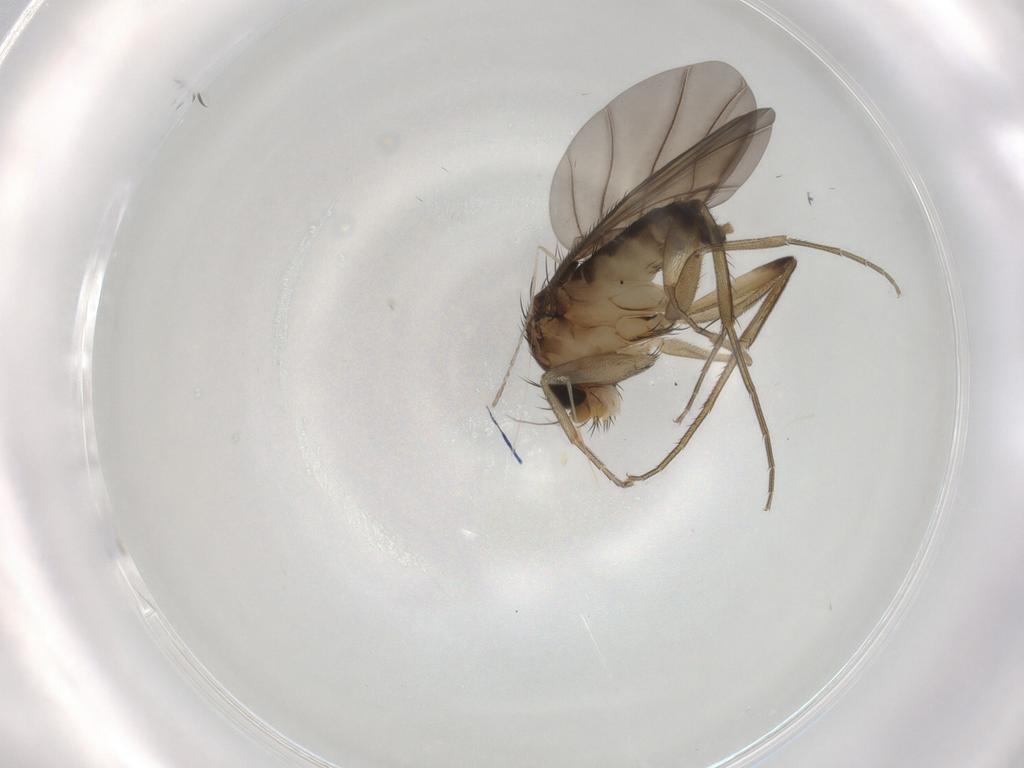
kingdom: Animalia
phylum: Arthropoda
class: Insecta
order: Diptera
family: Phoridae
